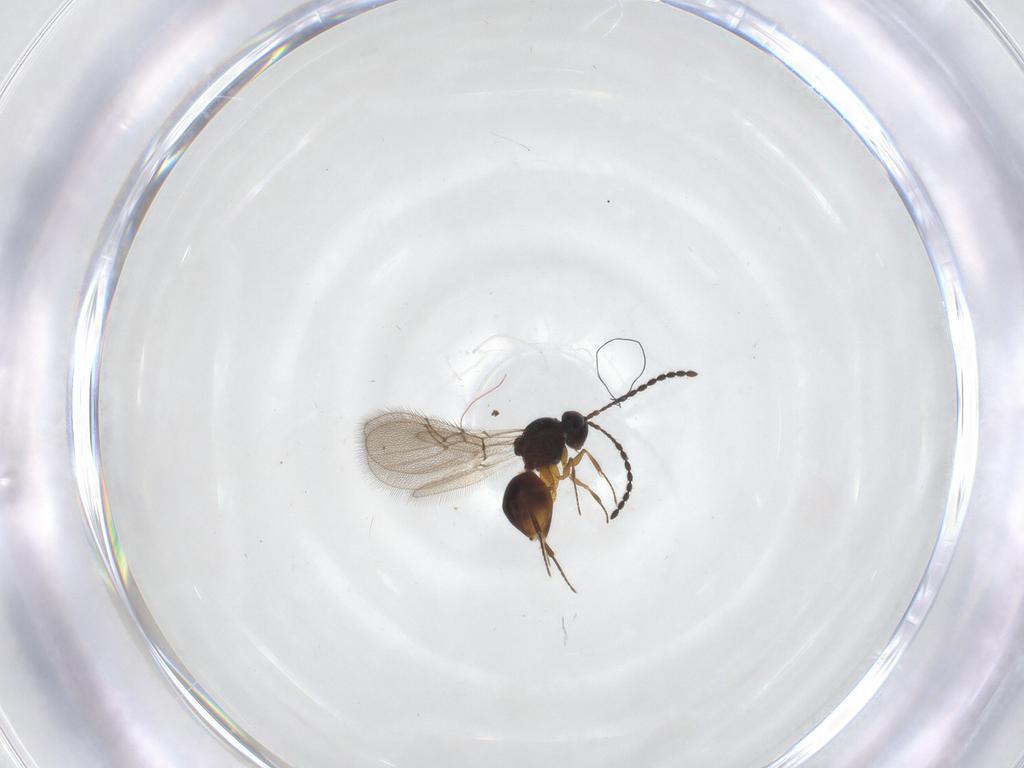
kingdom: Animalia
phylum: Arthropoda
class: Insecta
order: Hymenoptera
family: Figitidae
